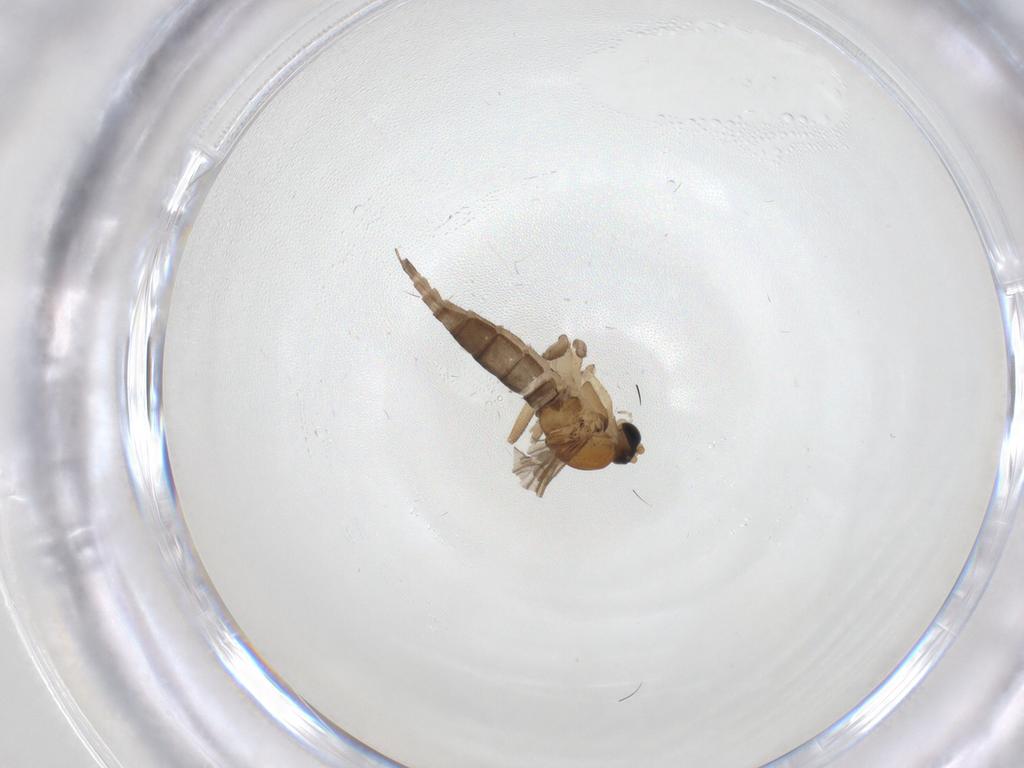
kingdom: Animalia
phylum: Arthropoda
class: Insecta
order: Diptera
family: Sciaridae
